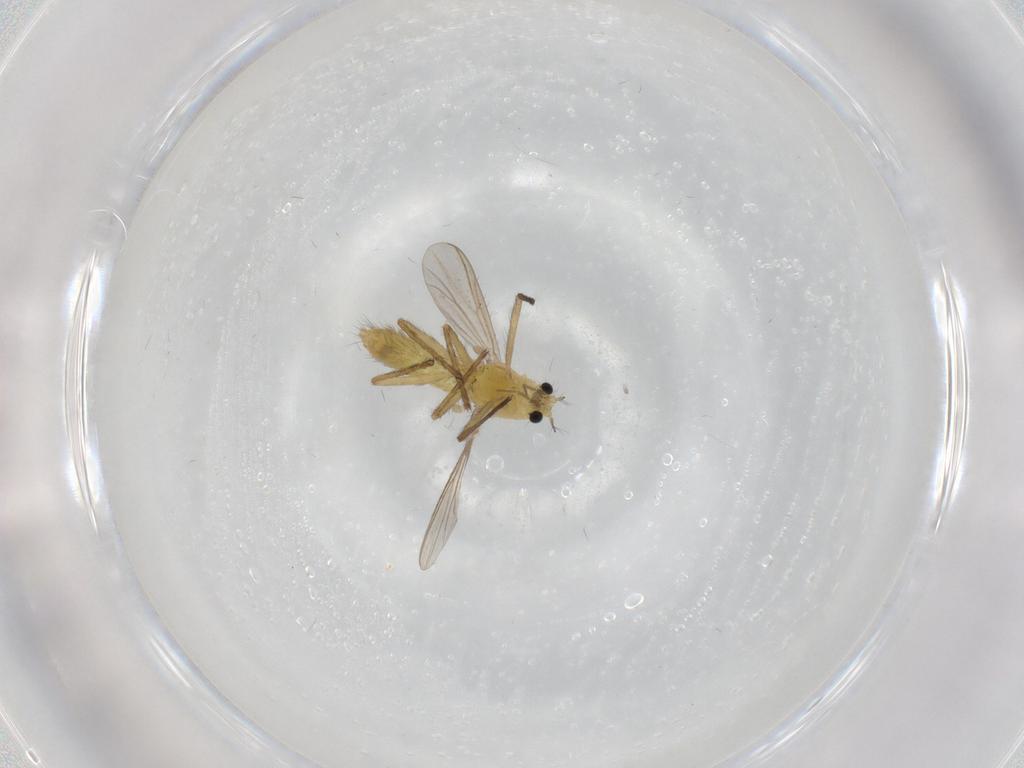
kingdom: Animalia
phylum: Arthropoda
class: Insecta
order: Diptera
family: Chironomidae
